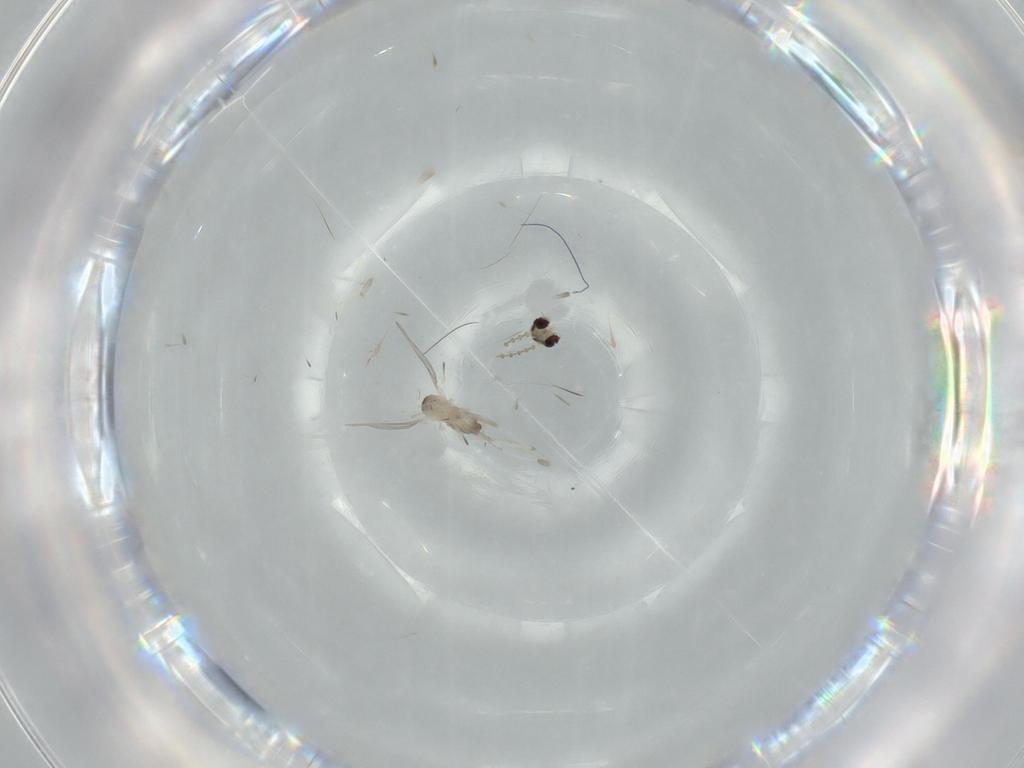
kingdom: Animalia
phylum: Arthropoda
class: Insecta
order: Diptera
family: Cecidomyiidae
